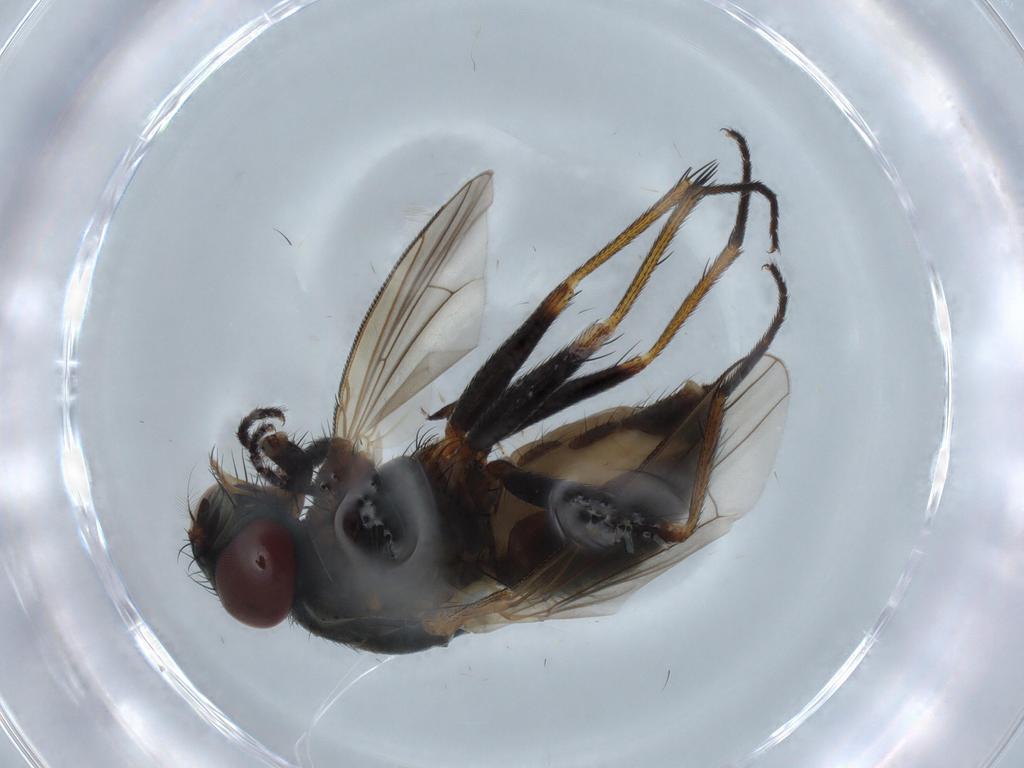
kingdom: Animalia
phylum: Arthropoda
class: Insecta
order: Diptera
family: Muscidae
